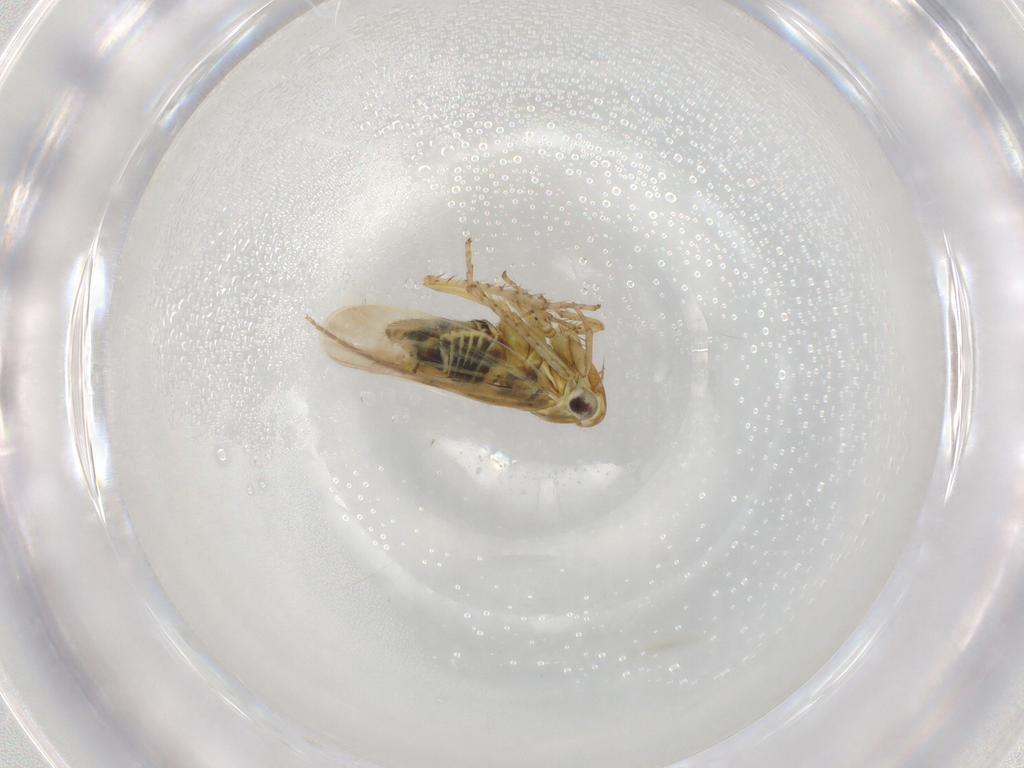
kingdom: Animalia
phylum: Arthropoda
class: Insecta
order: Hemiptera
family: Cicadellidae
